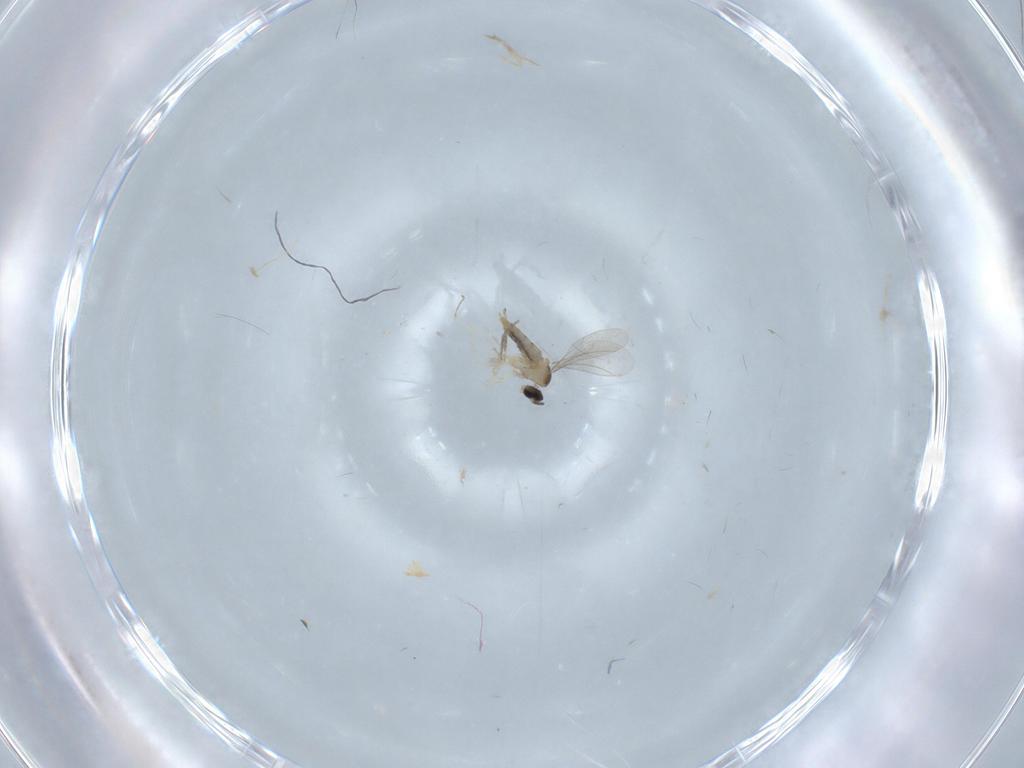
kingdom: Animalia
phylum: Arthropoda
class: Insecta
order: Diptera
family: Cecidomyiidae
